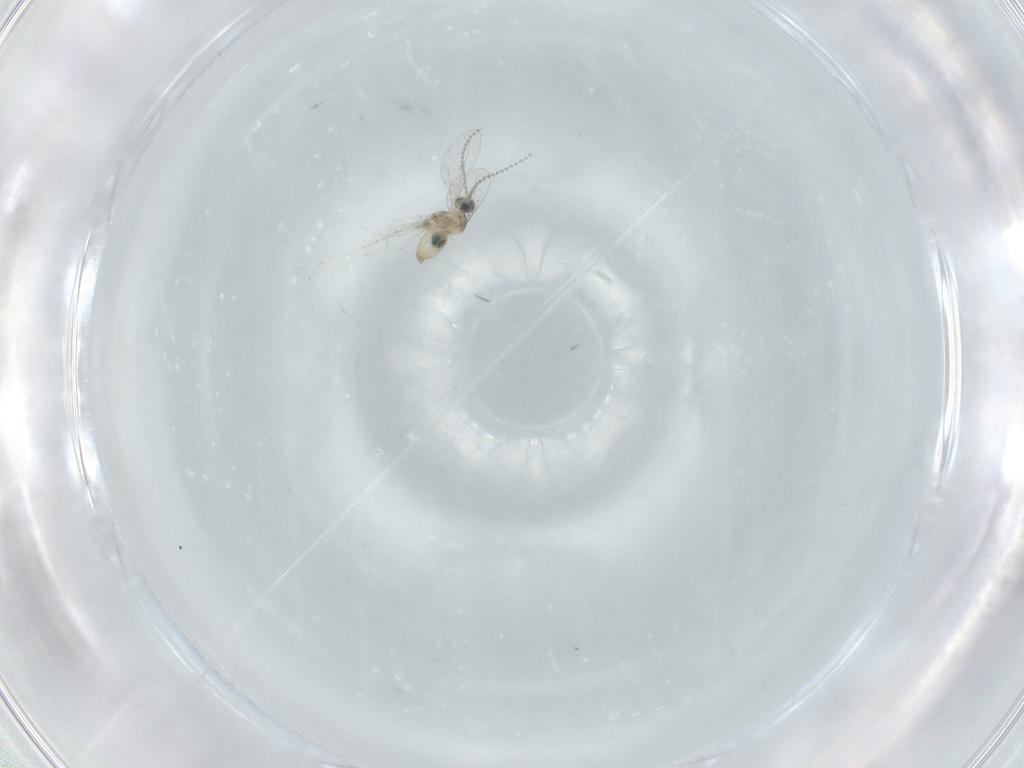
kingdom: Animalia
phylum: Arthropoda
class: Insecta
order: Diptera
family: Cecidomyiidae
